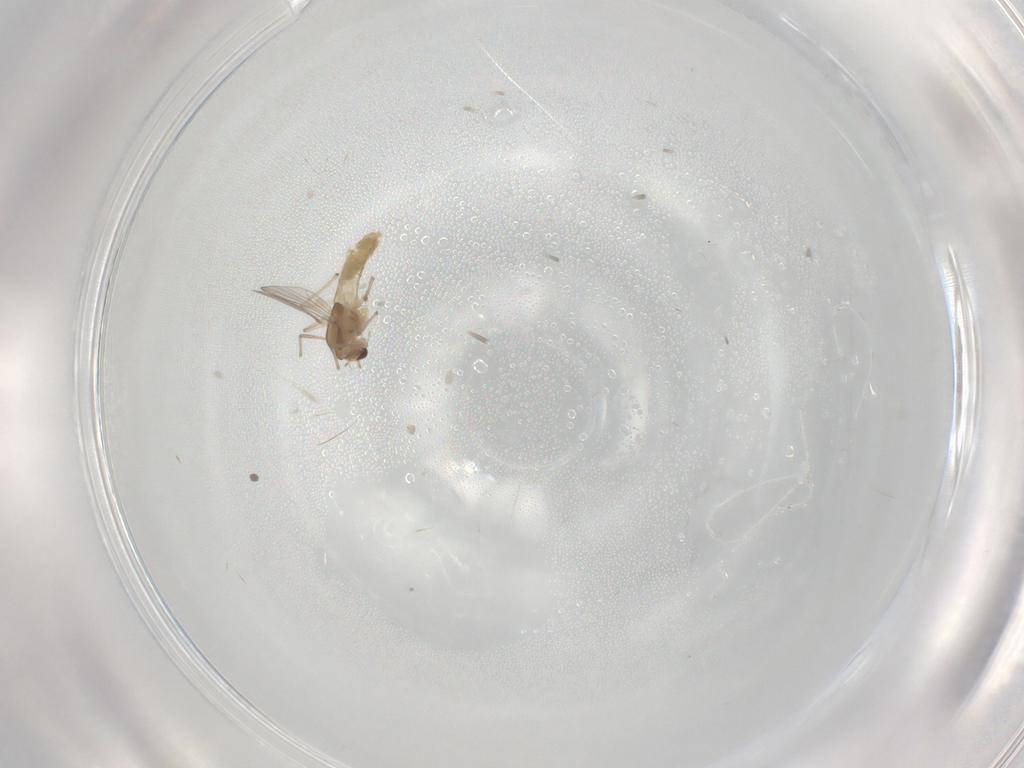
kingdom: Animalia
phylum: Arthropoda
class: Insecta
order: Diptera
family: Chironomidae
